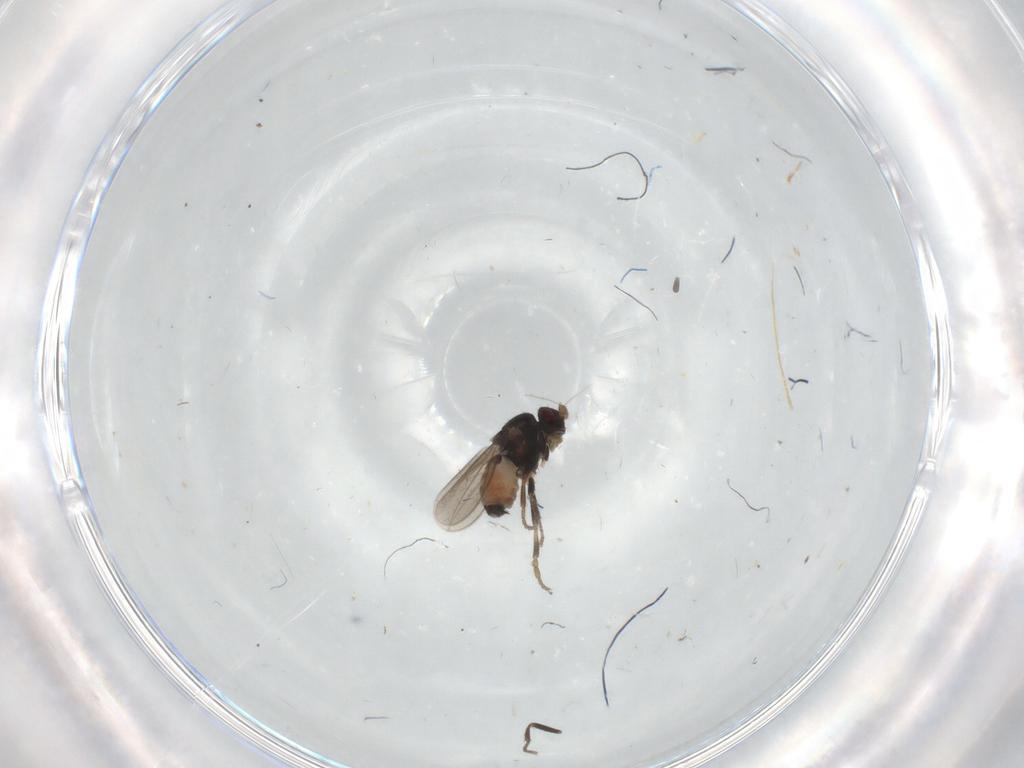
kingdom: Animalia
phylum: Arthropoda
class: Insecta
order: Diptera
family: Sphaeroceridae
